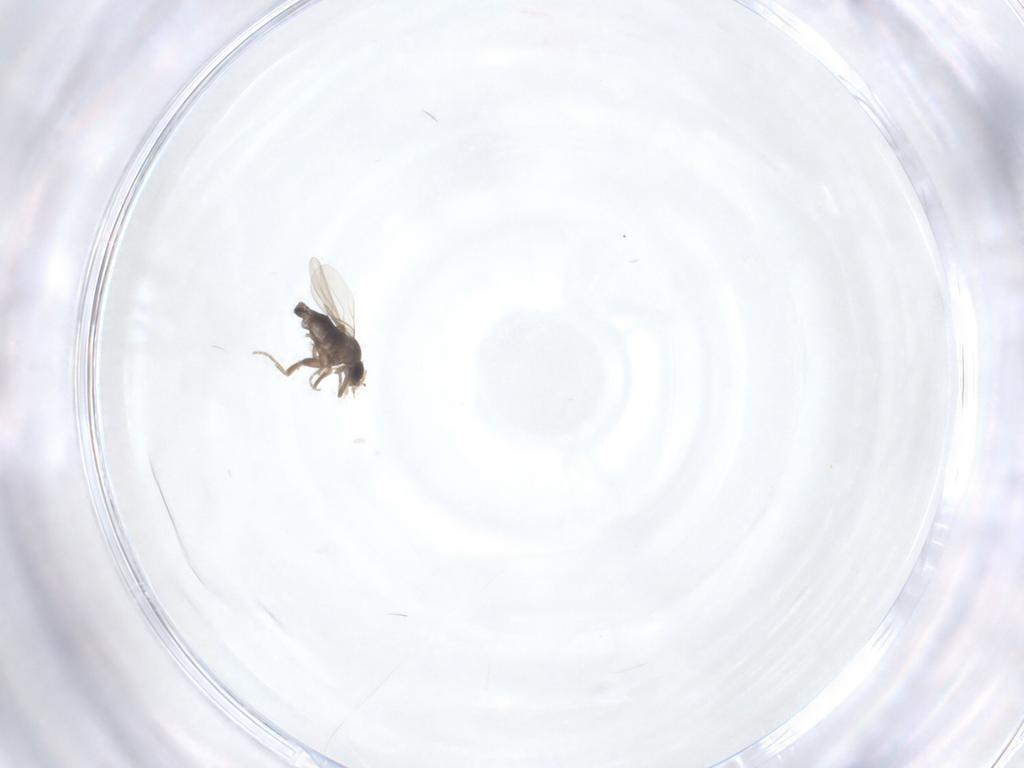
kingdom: Animalia
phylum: Arthropoda
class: Insecta
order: Diptera
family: Phoridae
